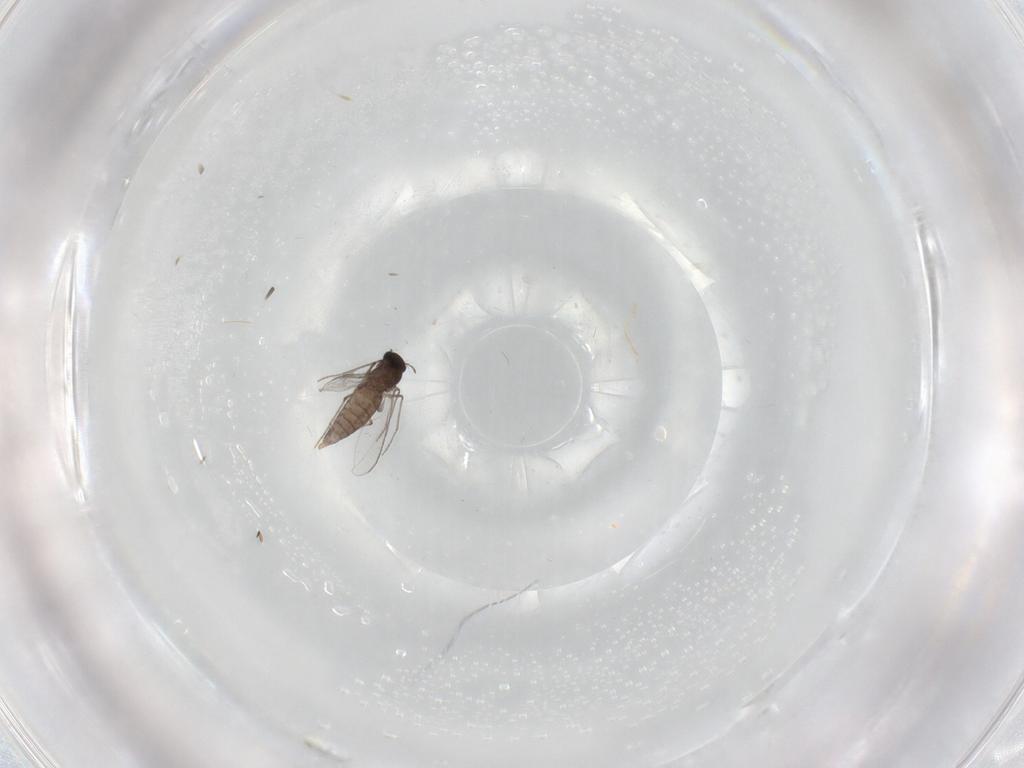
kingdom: Animalia
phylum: Arthropoda
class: Insecta
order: Diptera
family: Chironomidae
